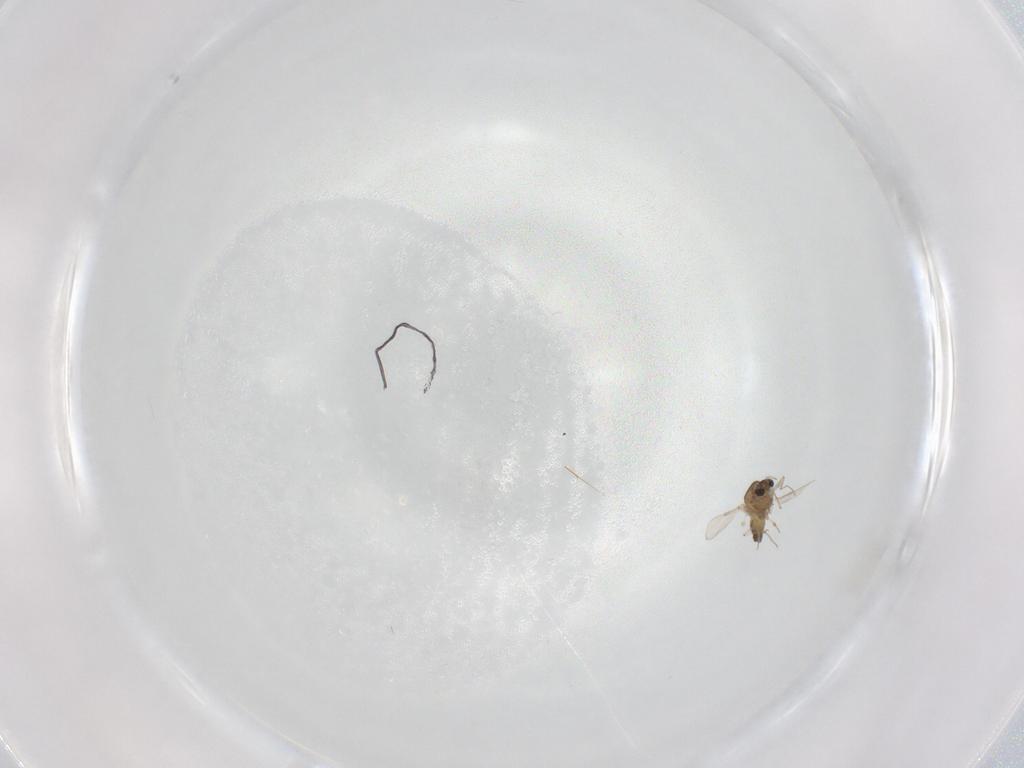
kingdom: Animalia
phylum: Arthropoda
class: Insecta
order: Diptera
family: Chironomidae
